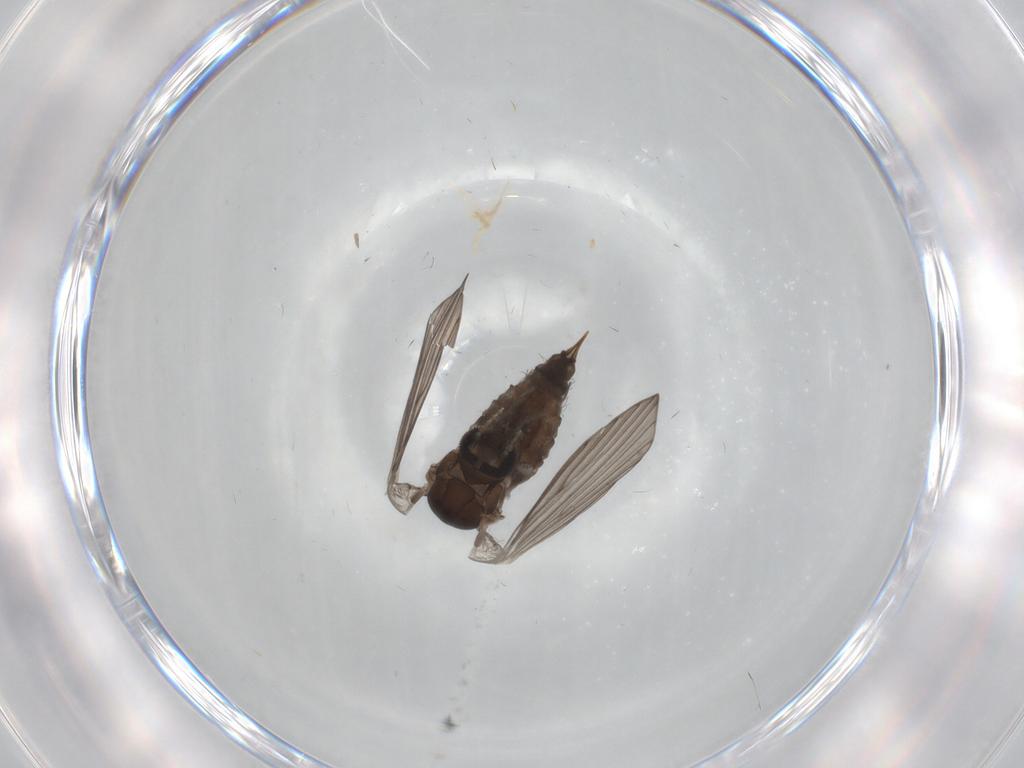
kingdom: Animalia
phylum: Arthropoda
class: Insecta
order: Diptera
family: Psychodidae
